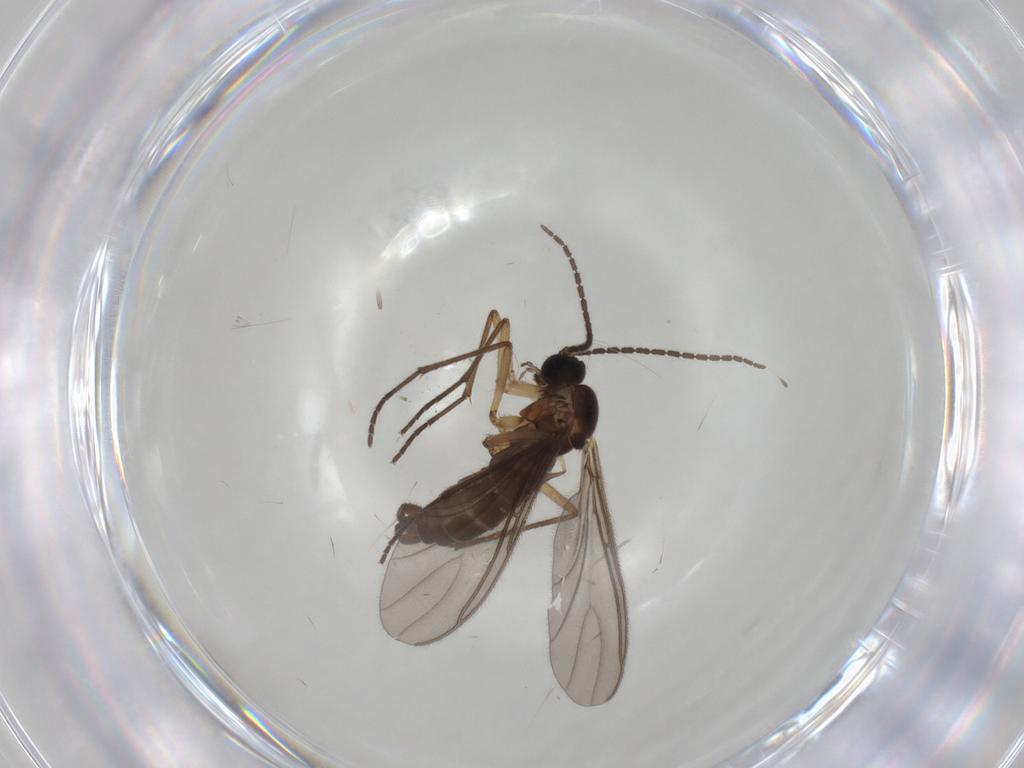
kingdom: Animalia
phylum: Arthropoda
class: Insecta
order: Diptera
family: Sciaridae
